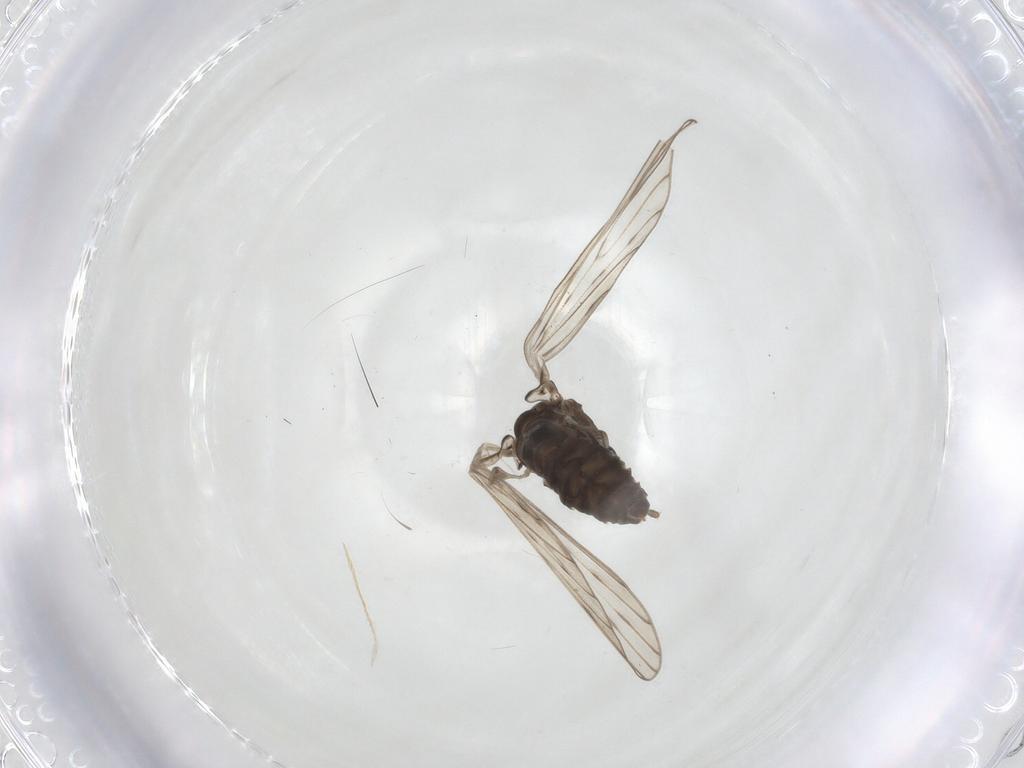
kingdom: Animalia
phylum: Arthropoda
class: Insecta
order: Diptera
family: Psychodidae
